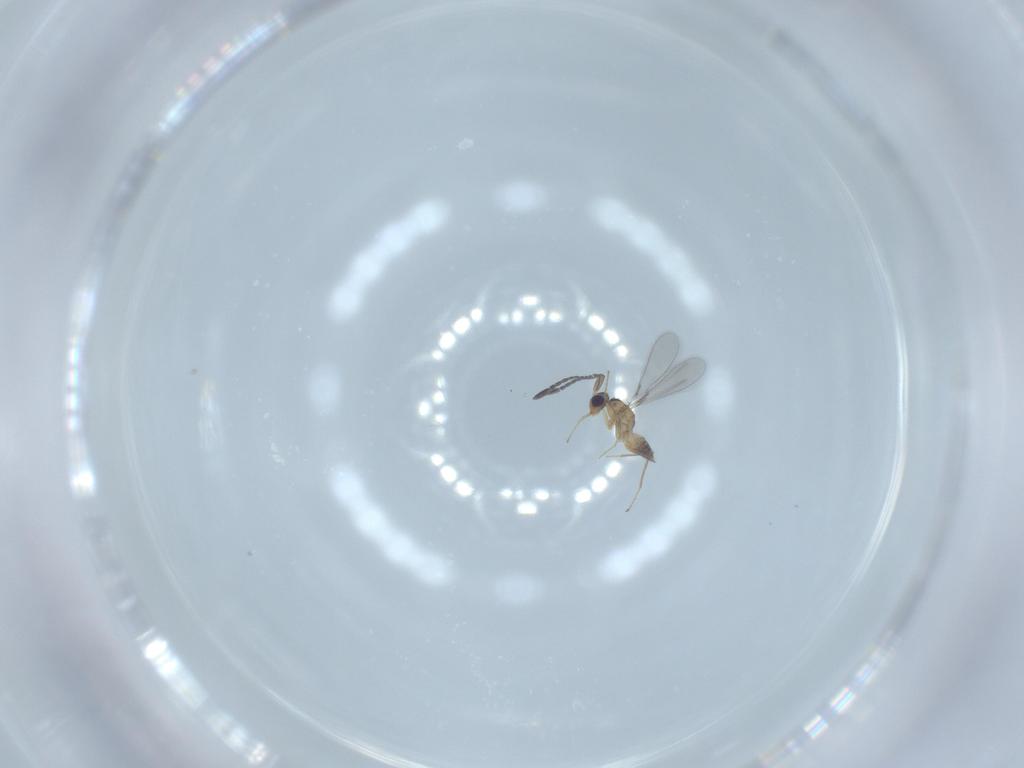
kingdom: Animalia
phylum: Arthropoda
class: Insecta
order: Hymenoptera
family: Mymaridae
